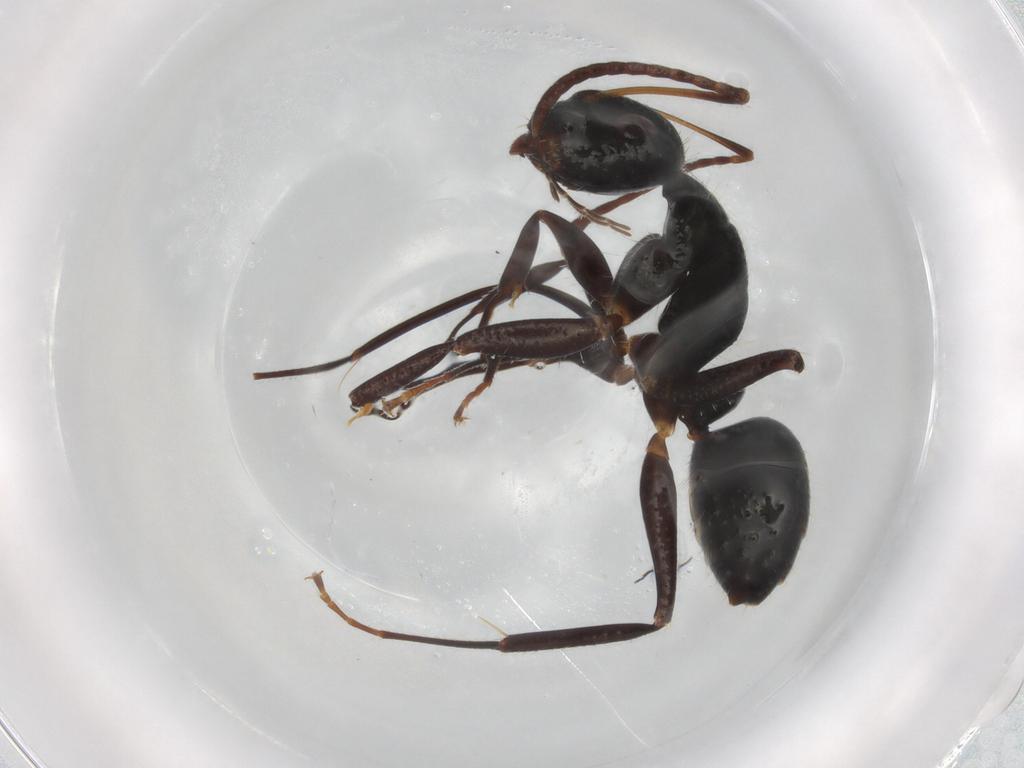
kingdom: Animalia
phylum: Arthropoda
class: Insecta
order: Hymenoptera
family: Formicidae
